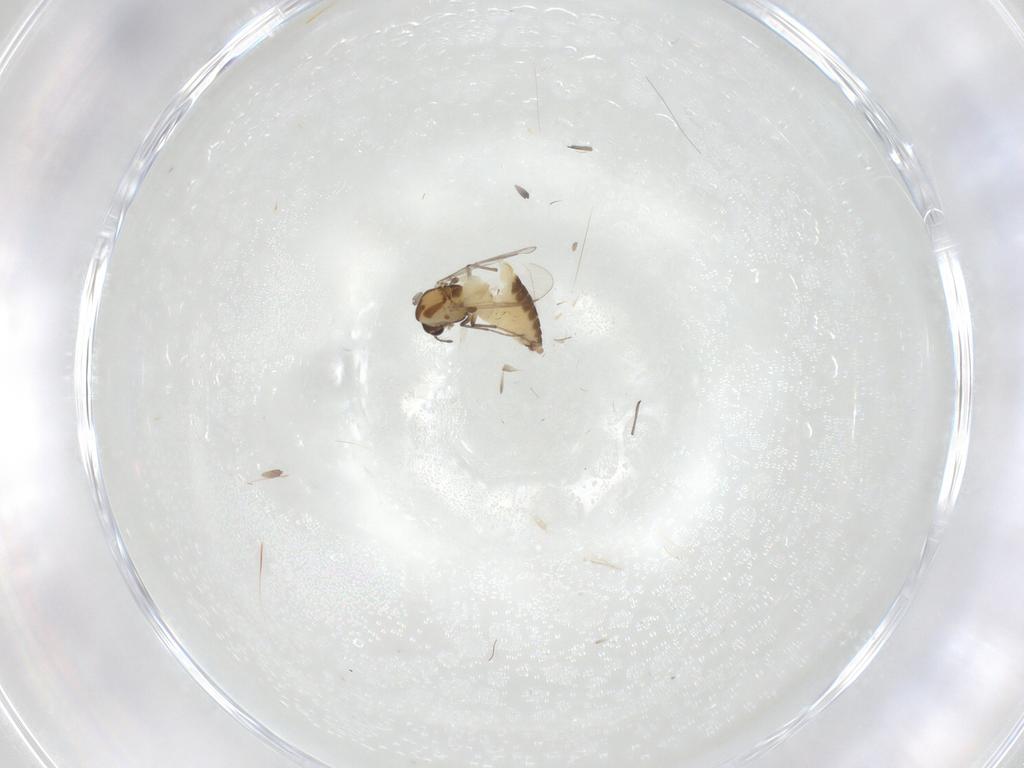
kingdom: Animalia
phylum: Arthropoda
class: Insecta
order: Diptera
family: Chironomidae
